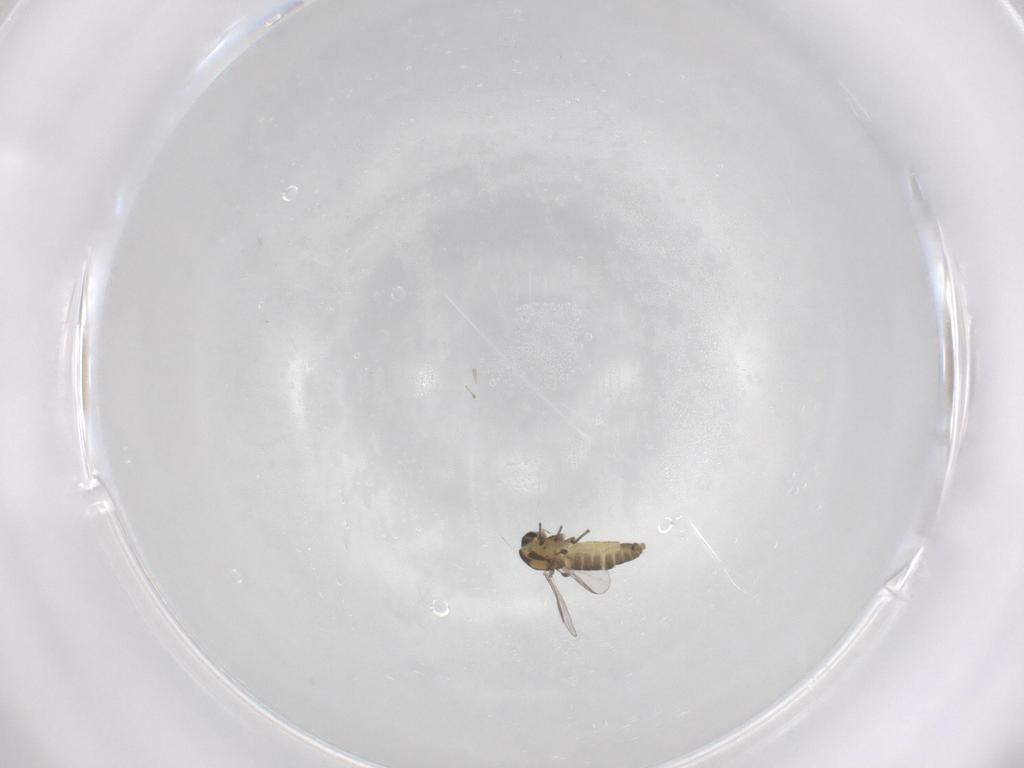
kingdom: Animalia
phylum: Arthropoda
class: Insecta
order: Diptera
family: Chironomidae
